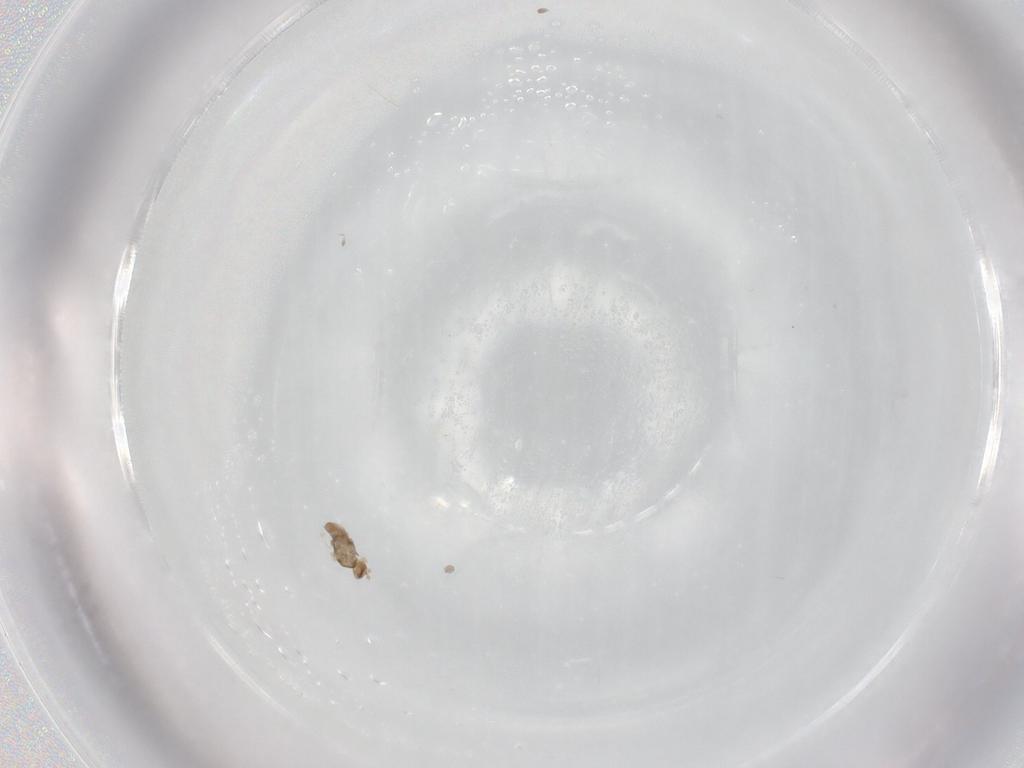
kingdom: Animalia
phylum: Arthropoda
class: Insecta
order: Diptera
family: Cecidomyiidae
